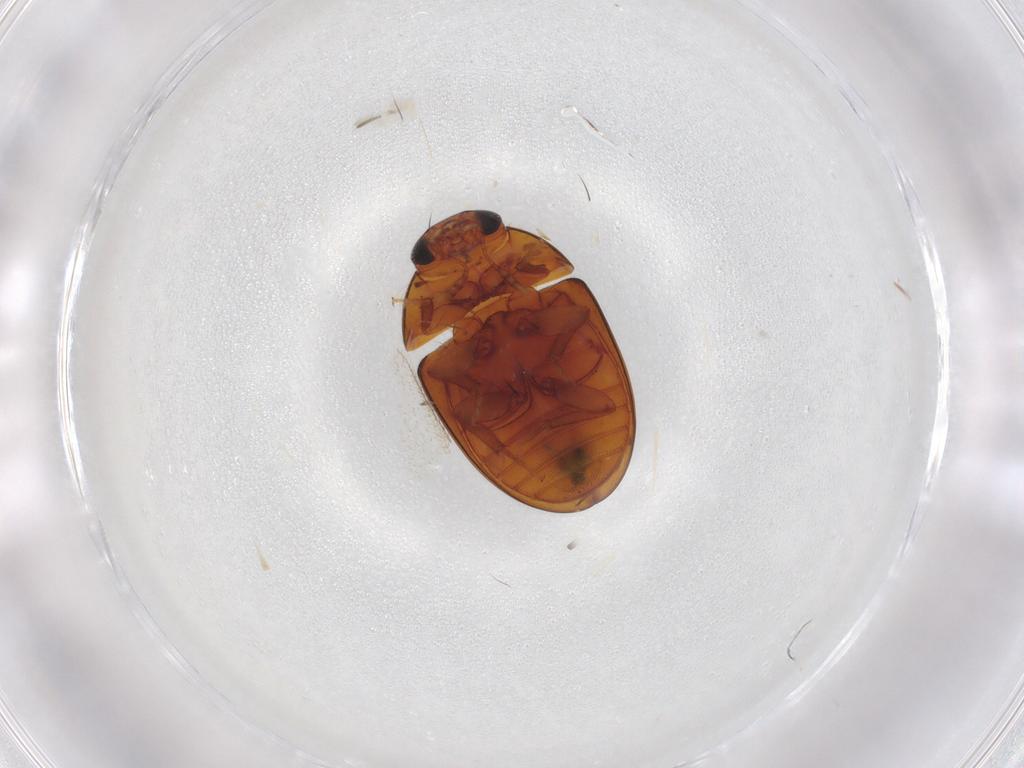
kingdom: Animalia
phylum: Arthropoda
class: Insecta
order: Coleoptera
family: Phalacridae
